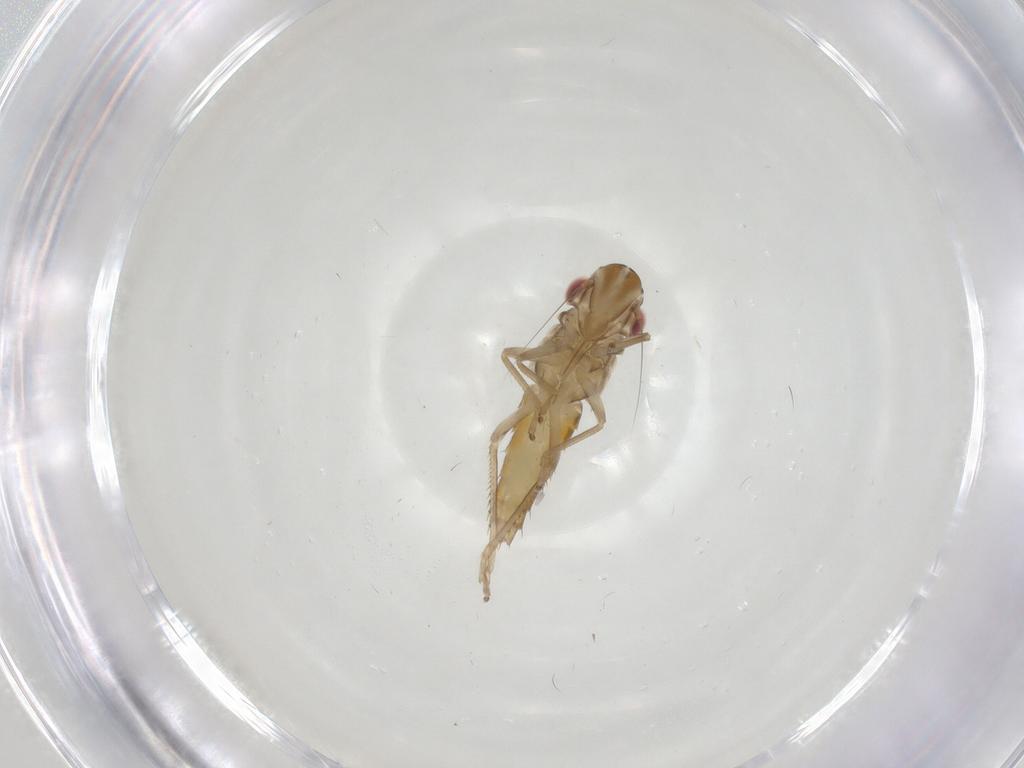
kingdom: Animalia
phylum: Arthropoda
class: Insecta
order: Hemiptera
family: Cicadellidae
